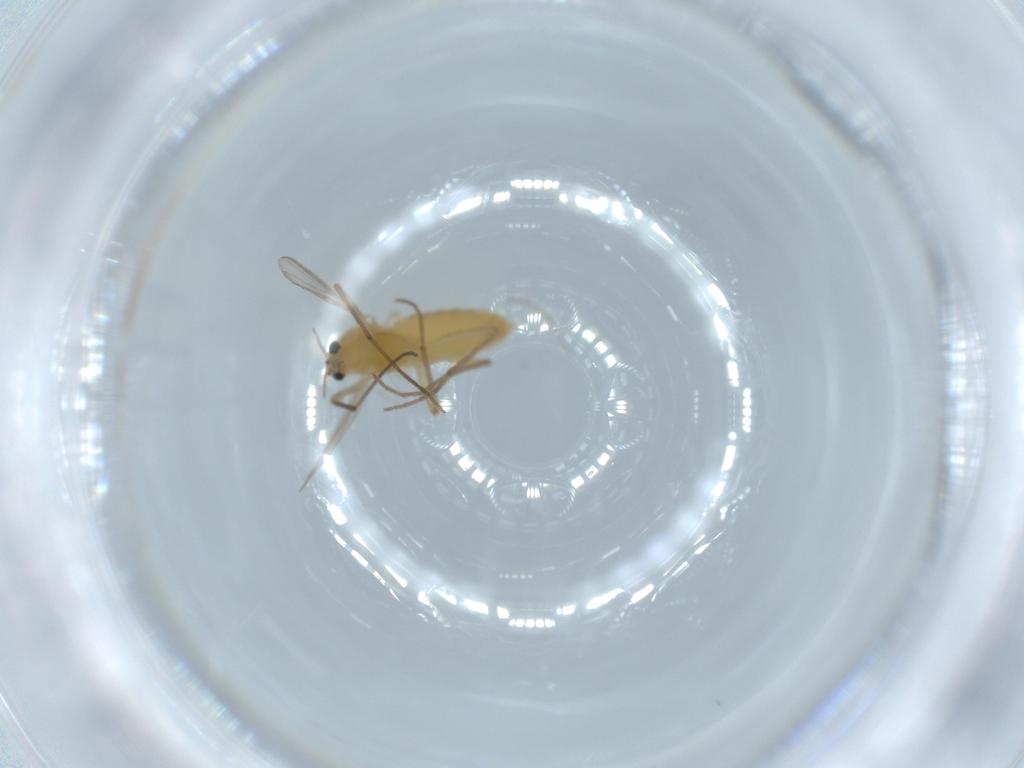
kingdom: Animalia
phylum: Arthropoda
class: Insecta
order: Diptera
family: Chironomidae
